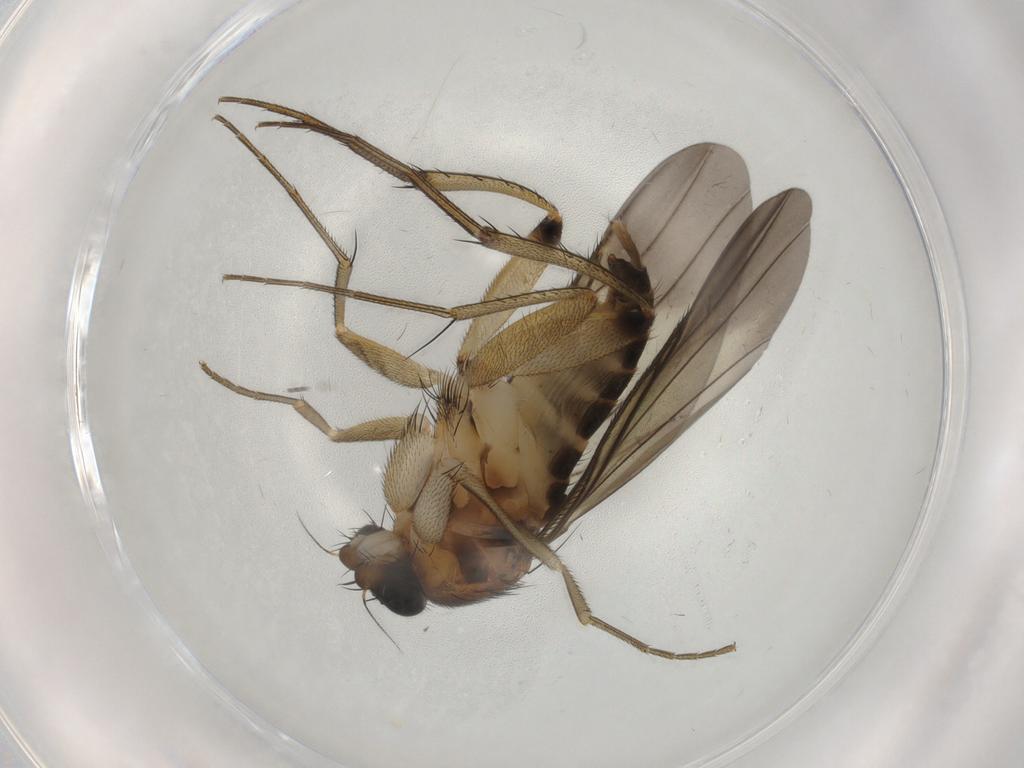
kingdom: Animalia
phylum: Arthropoda
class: Insecta
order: Diptera
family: Phoridae
